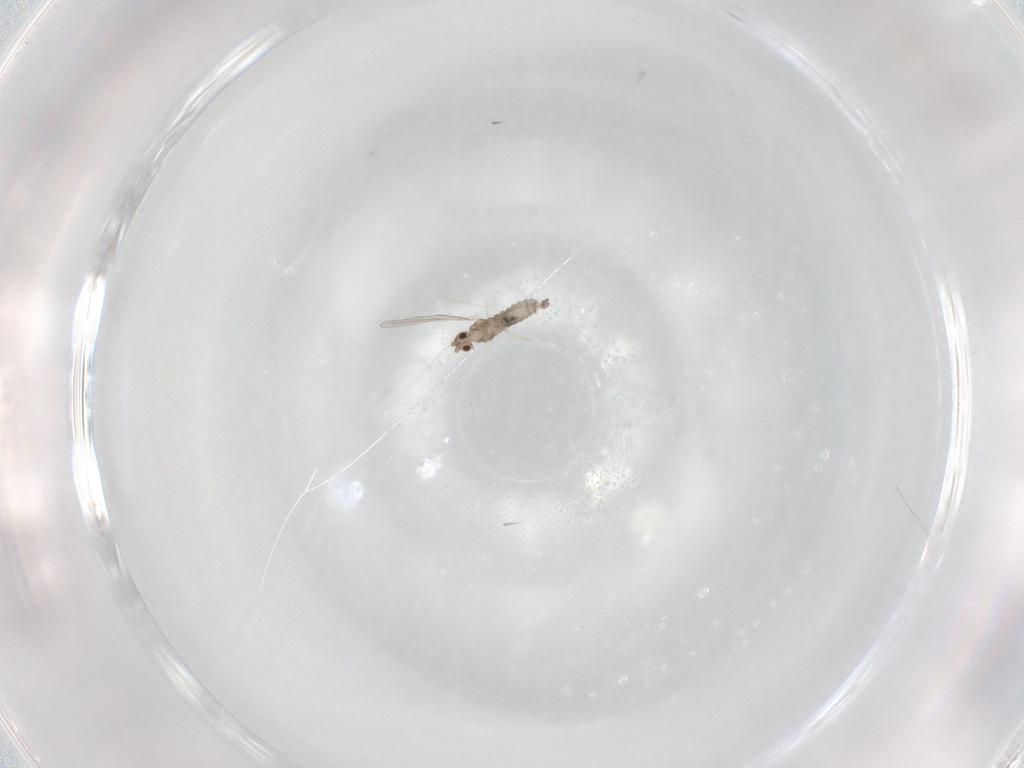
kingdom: Animalia
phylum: Arthropoda
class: Insecta
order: Diptera
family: Cecidomyiidae
